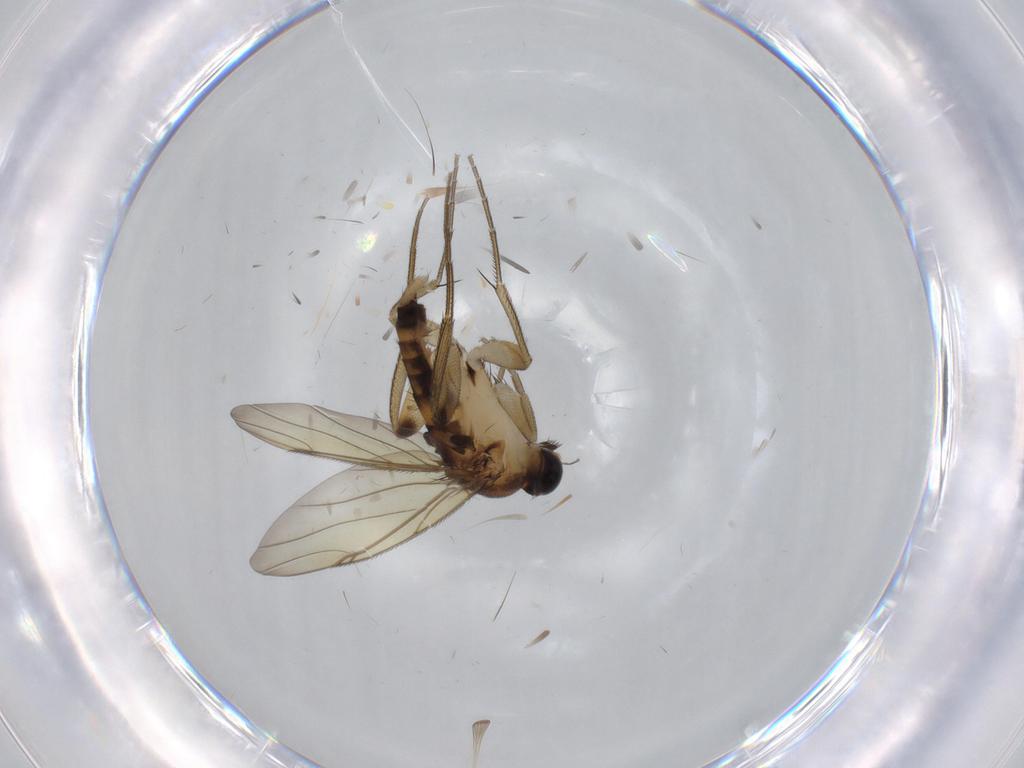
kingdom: Animalia
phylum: Arthropoda
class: Insecta
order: Diptera
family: Phoridae
